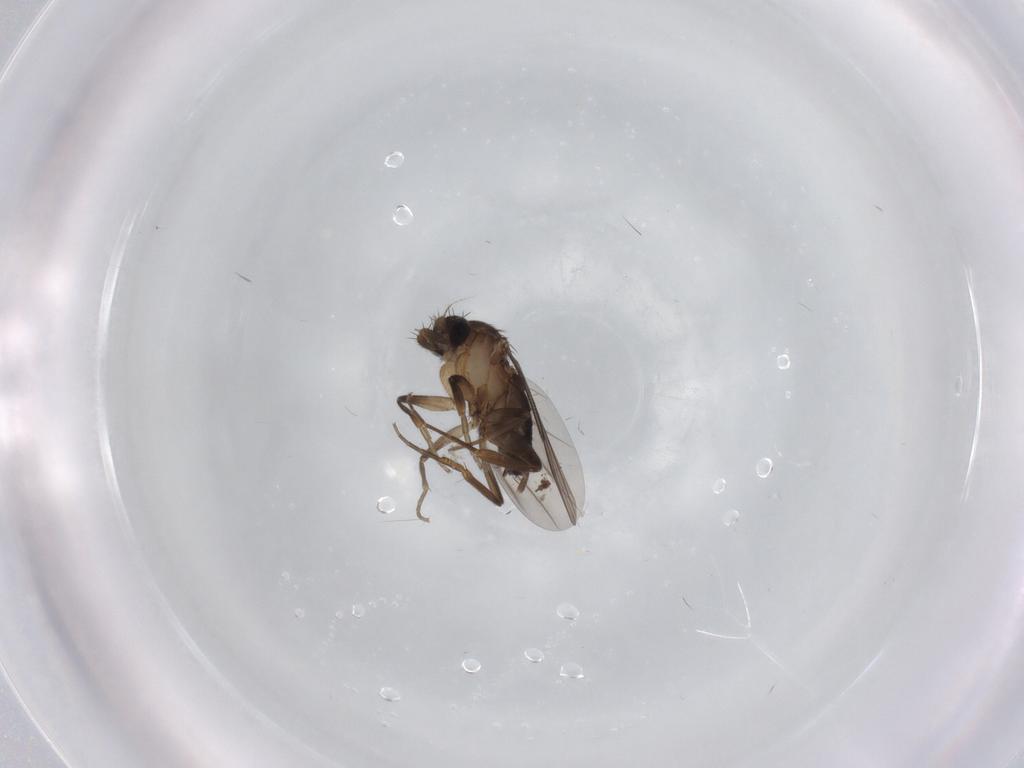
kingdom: Animalia
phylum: Arthropoda
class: Insecta
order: Diptera
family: Phoridae
